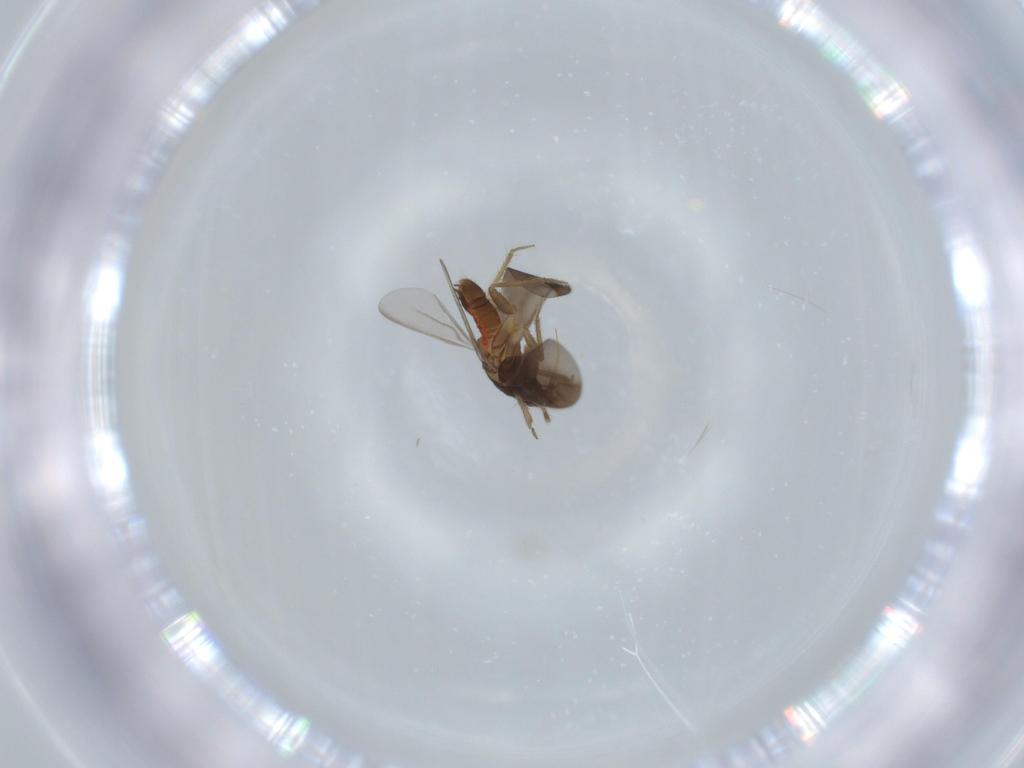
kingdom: Animalia
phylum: Arthropoda
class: Insecta
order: Hemiptera
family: Ceratocombidae
